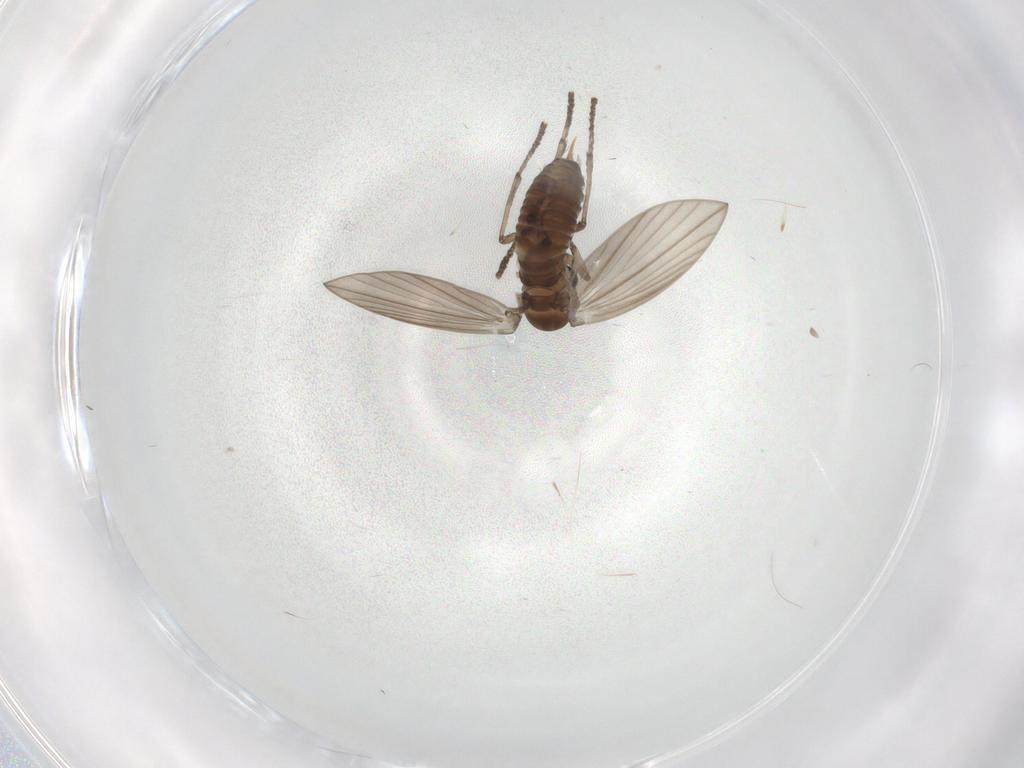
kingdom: Animalia
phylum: Arthropoda
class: Insecta
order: Diptera
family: Psychodidae
